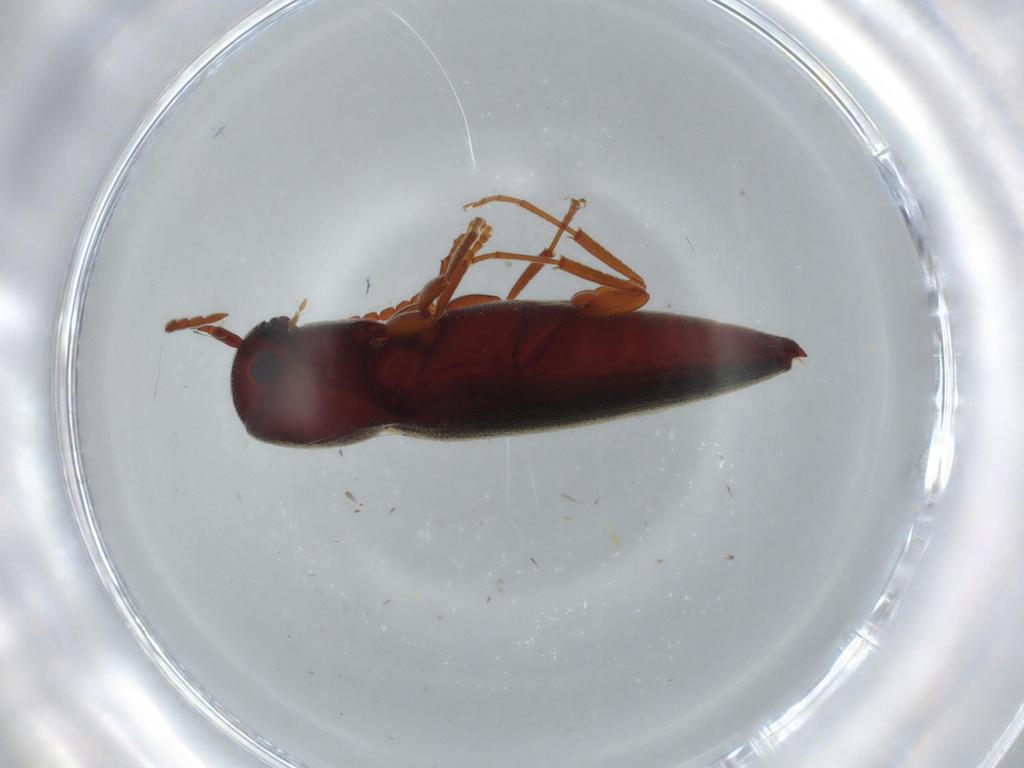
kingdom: Animalia
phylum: Arthropoda
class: Insecta
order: Coleoptera
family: Eucnemidae
